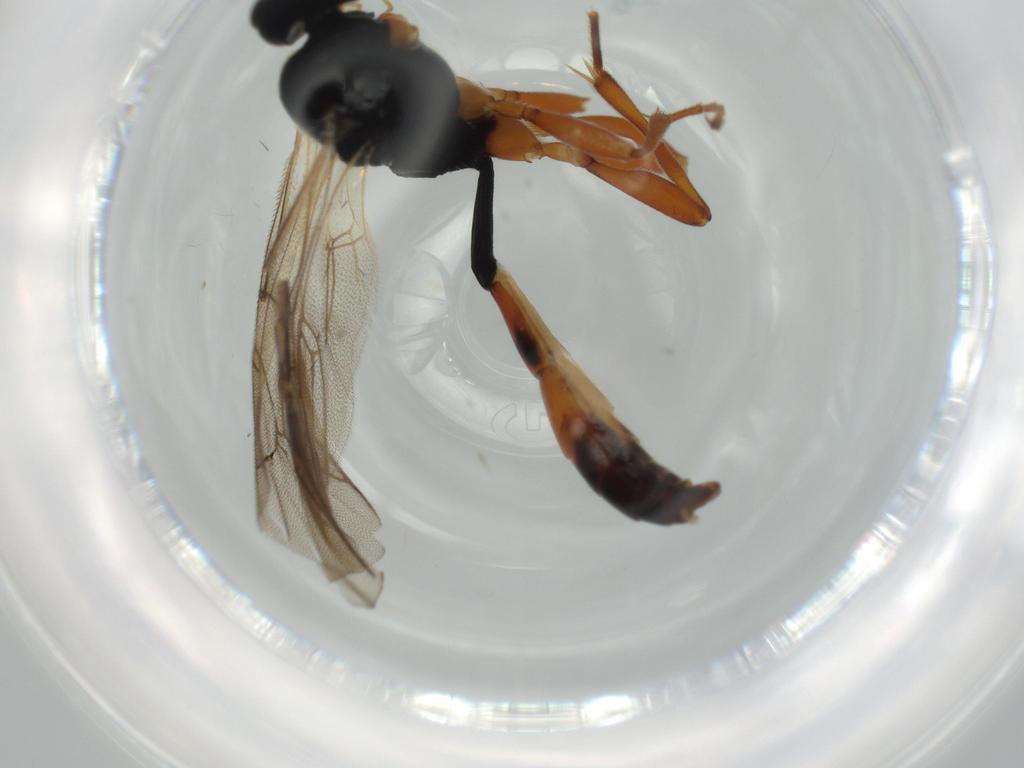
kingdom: Animalia
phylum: Arthropoda
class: Insecta
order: Hymenoptera
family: Ichneumonidae
